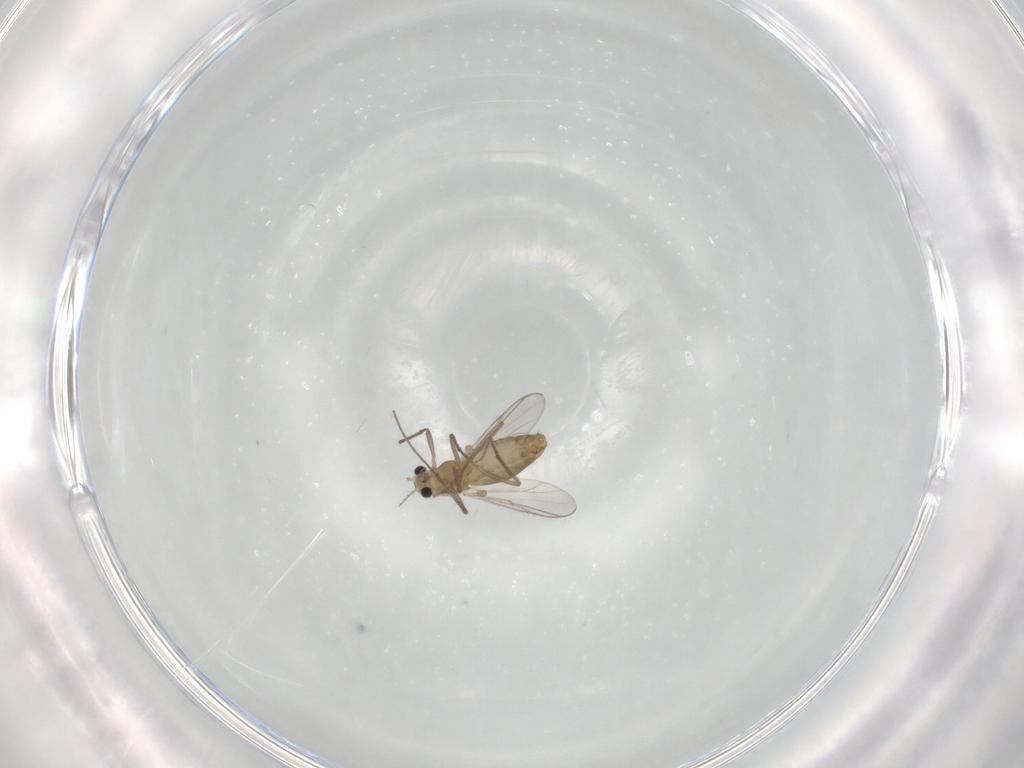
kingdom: Animalia
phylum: Arthropoda
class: Insecta
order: Diptera
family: Chironomidae
